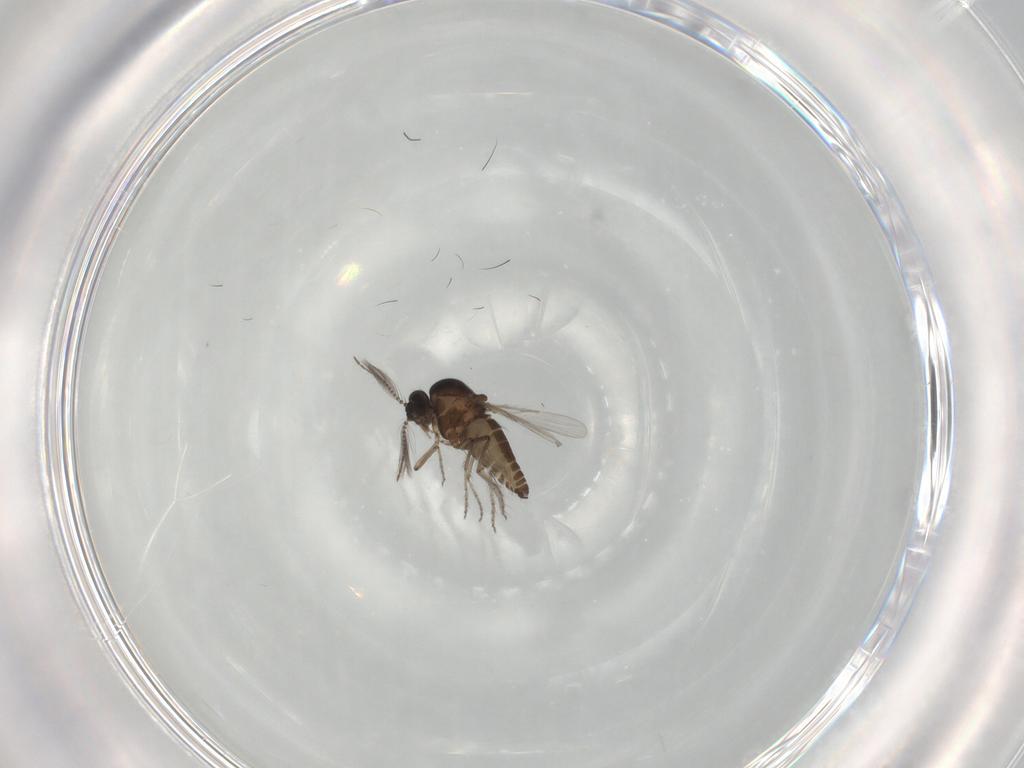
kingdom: Animalia
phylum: Arthropoda
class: Insecta
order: Diptera
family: Ceratopogonidae
